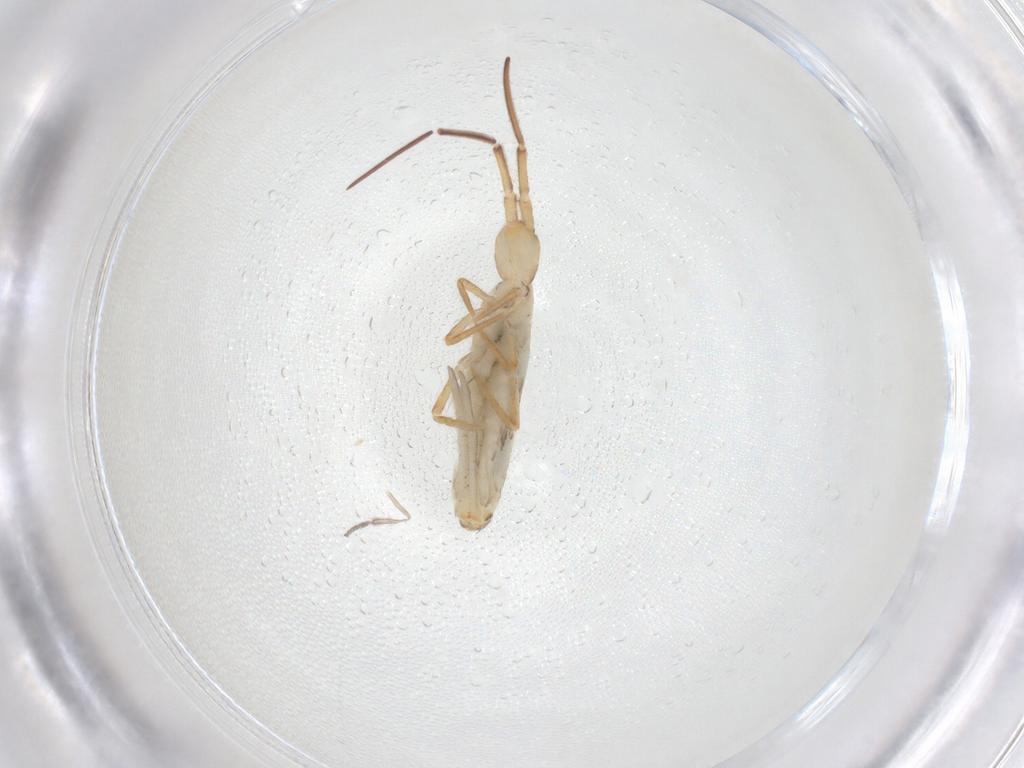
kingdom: Animalia
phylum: Arthropoda
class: Collembola
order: Entomobryomorpha
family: Entomobryidae
